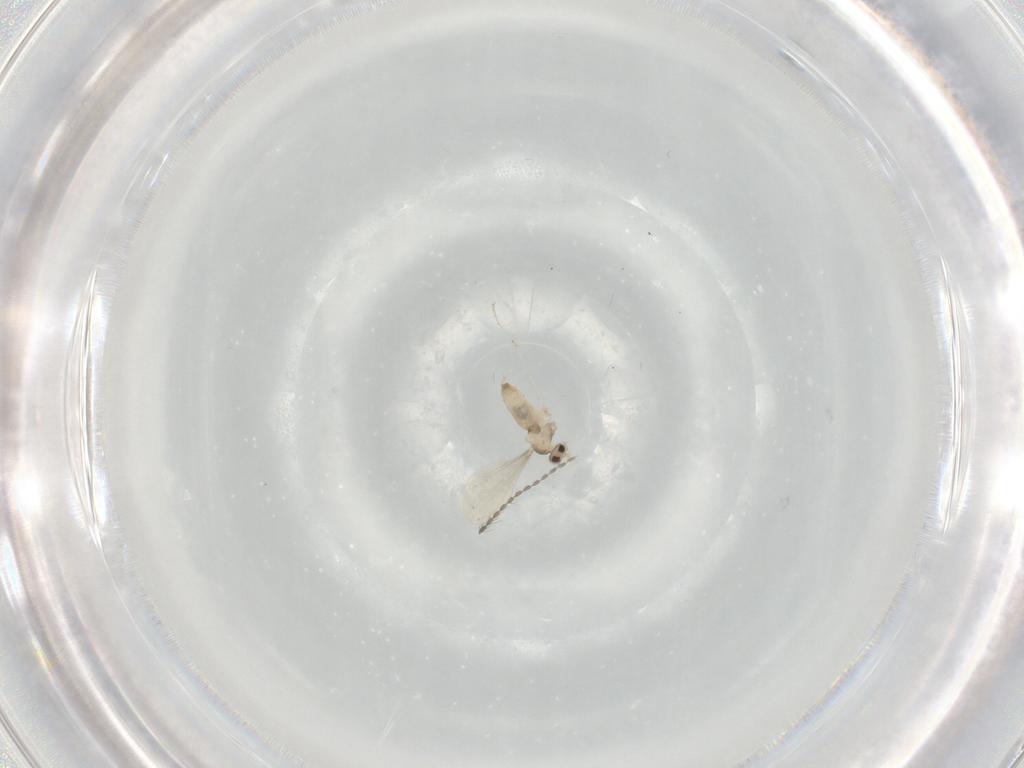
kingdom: Animalia
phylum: Arthropoda
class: Insecta
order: Diptera
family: Cecidomyiidae
